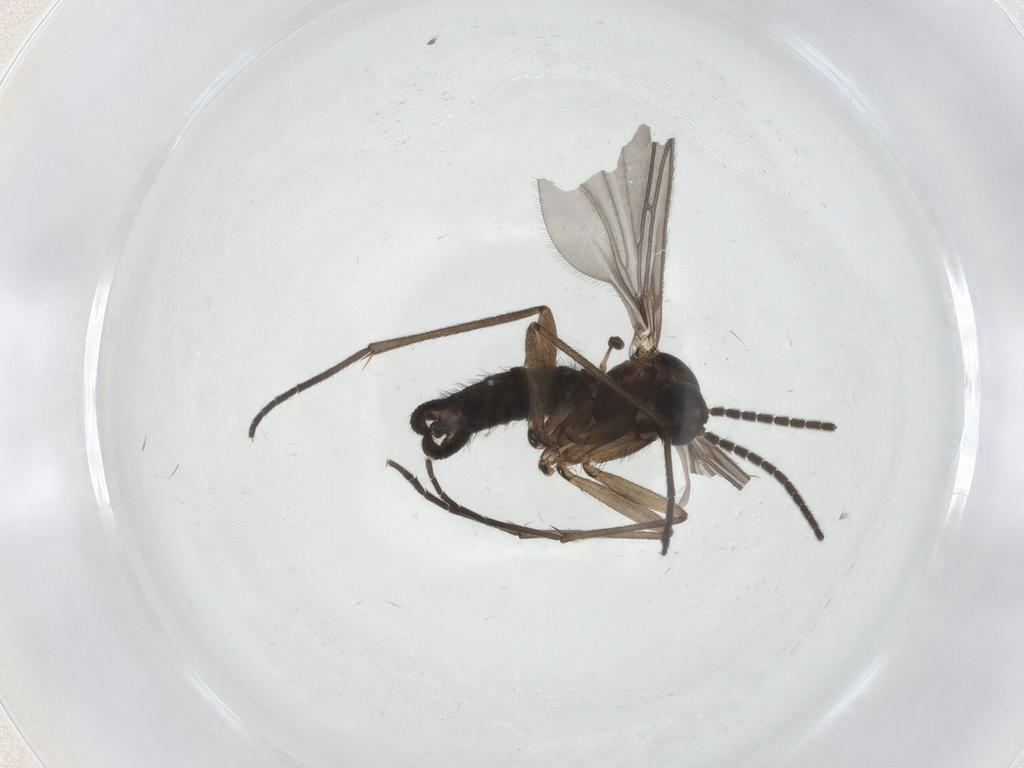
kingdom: Animalia
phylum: Arthropoda
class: Insecta
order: Diptera
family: Sciaridae
